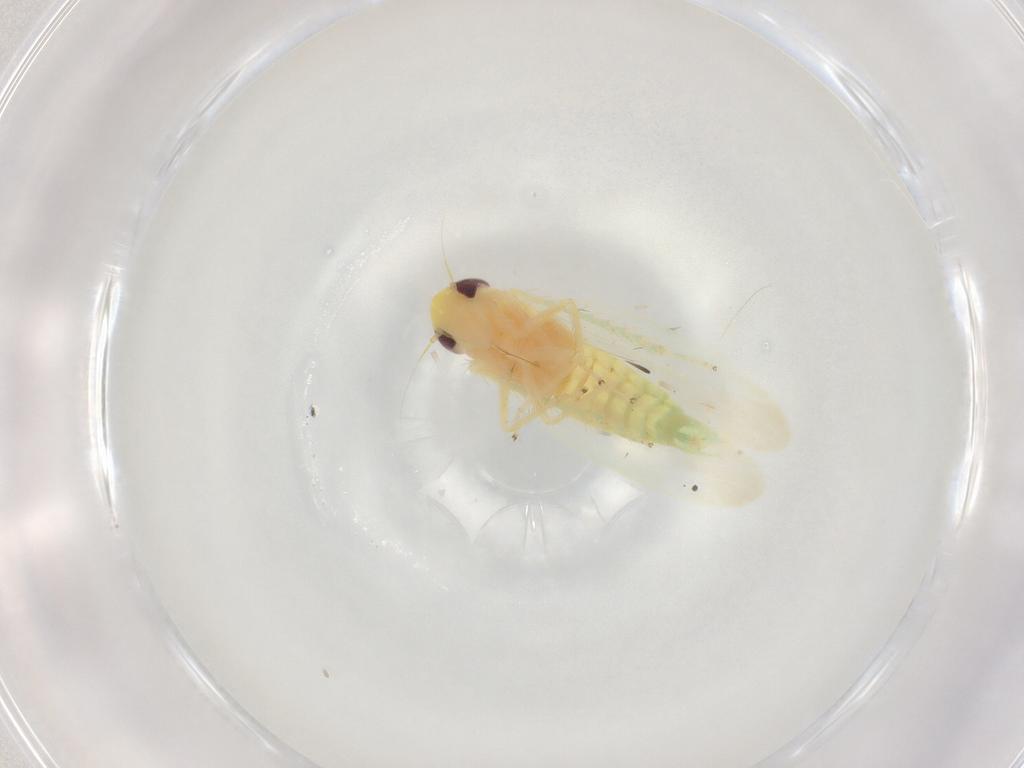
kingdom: Animalia
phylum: Arthropoda
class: Insecta
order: Hemiptera
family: Cicadellidae
